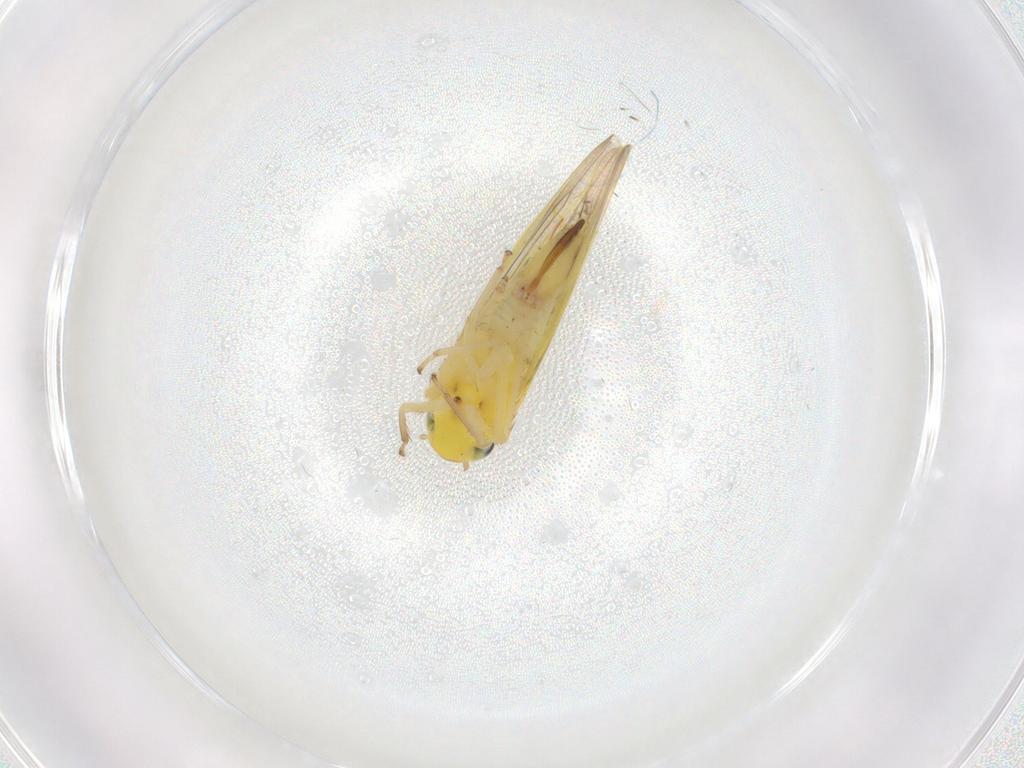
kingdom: Animalia
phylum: Arthropoda
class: Insecta
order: Hemiptera
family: Cicadellidae
